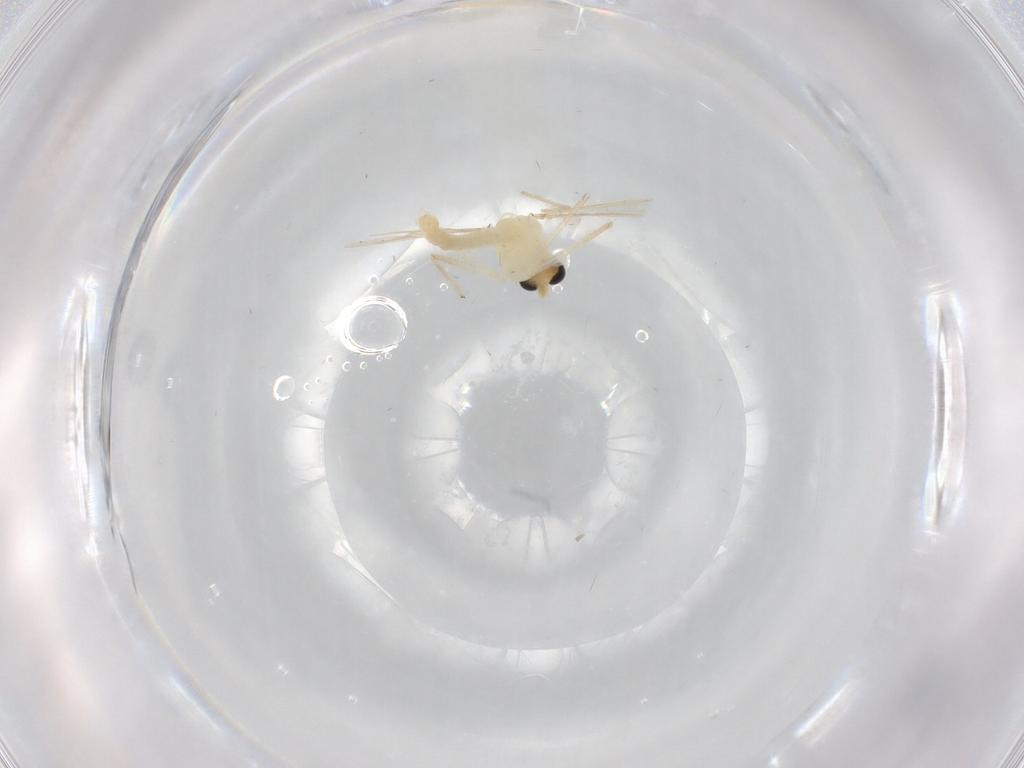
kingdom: Animalia
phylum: Arthropoda
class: Insecta
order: Diptera
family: Chironomidae
